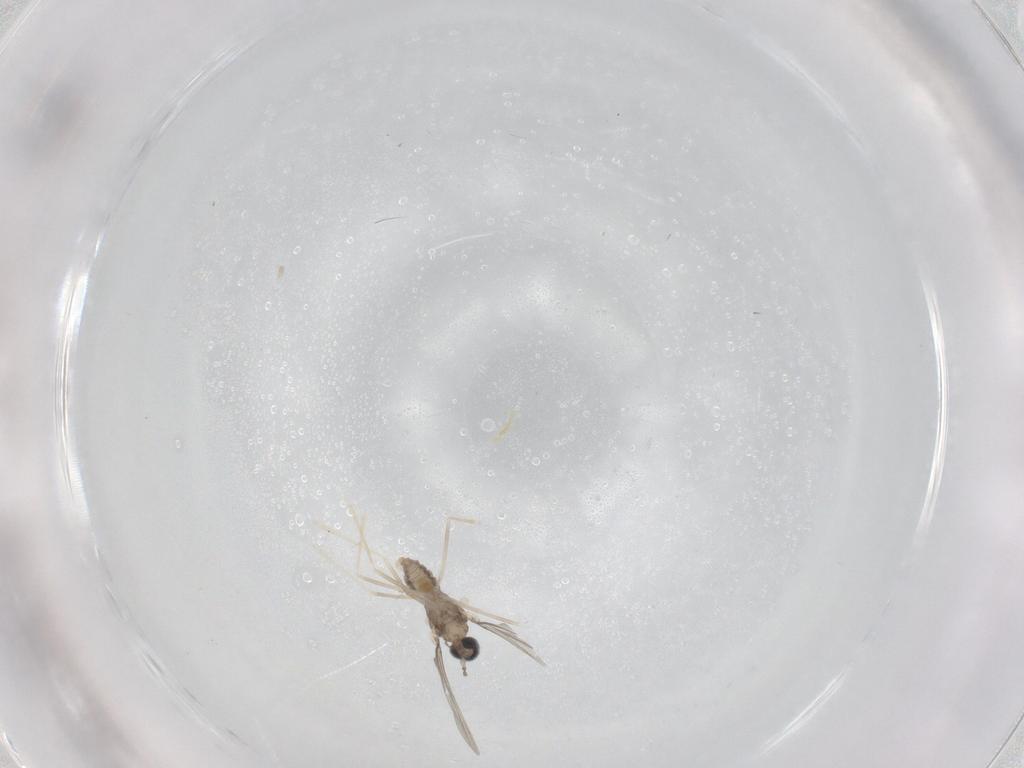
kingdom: Animalia
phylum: Arthropoda
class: Insecta
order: Diptera
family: Cecidomyiidae
